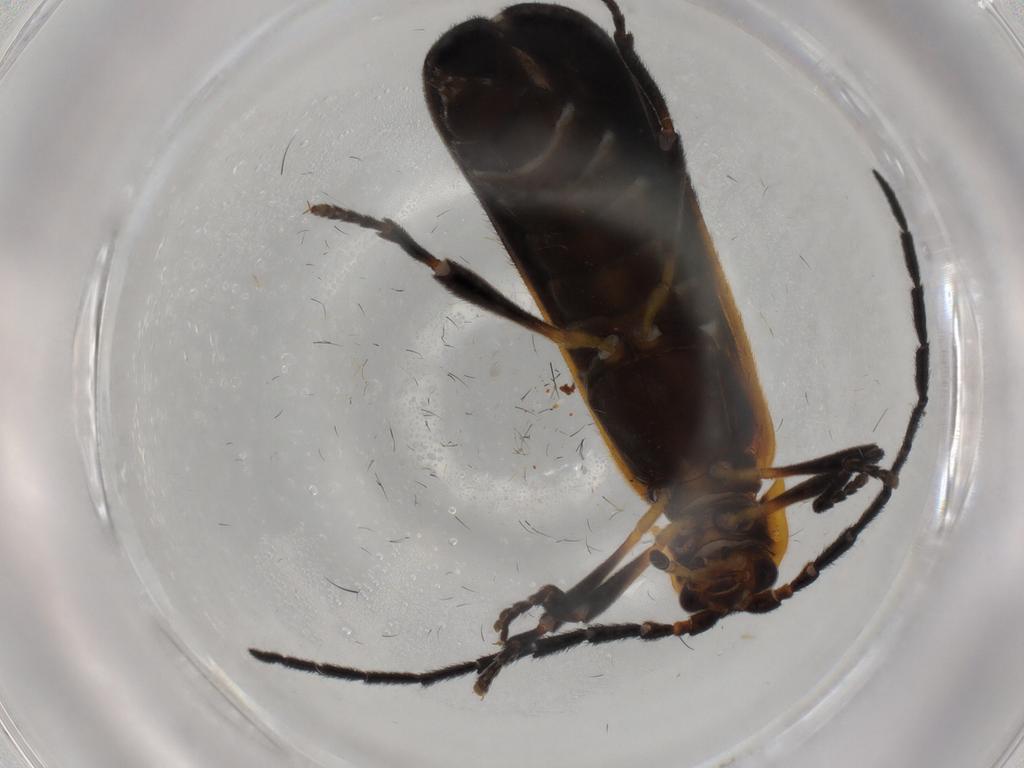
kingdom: Animalia
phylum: Arthropoda
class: Insecta
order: Coleoptera
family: Lycidae
